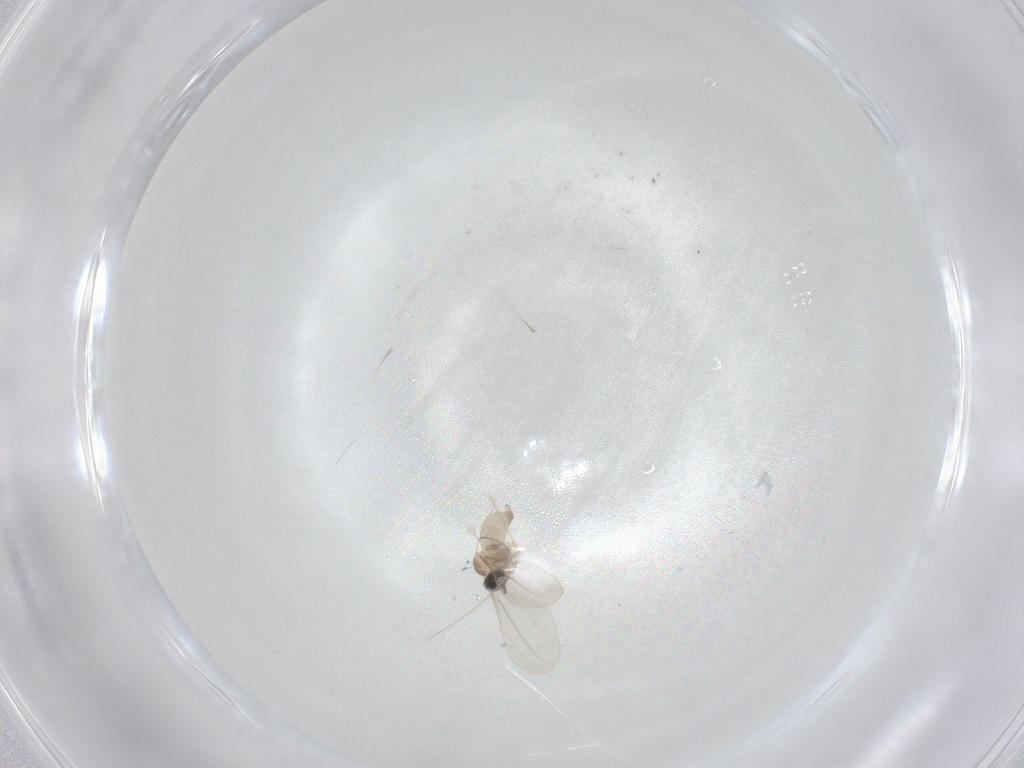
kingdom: Animalia
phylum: Arthropoda
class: Insecta
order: Diptera
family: Cecidomyiidae
